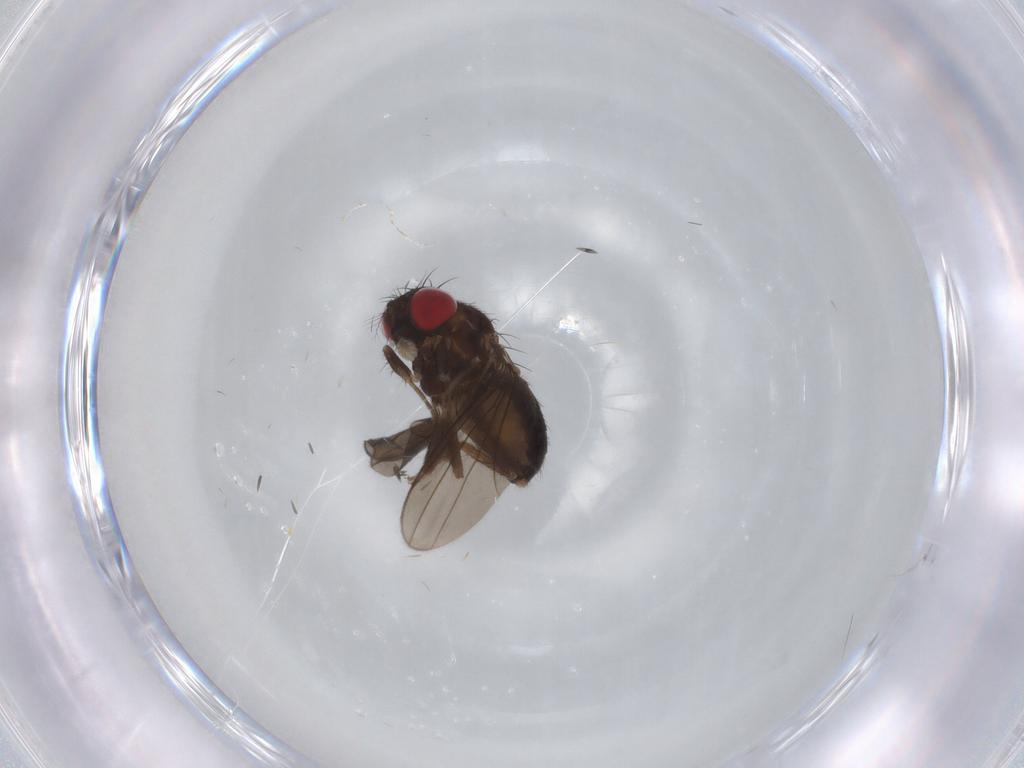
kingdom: Animalia
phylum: Arthropoda
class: Insecta
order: Diptera
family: Drosophilidae
